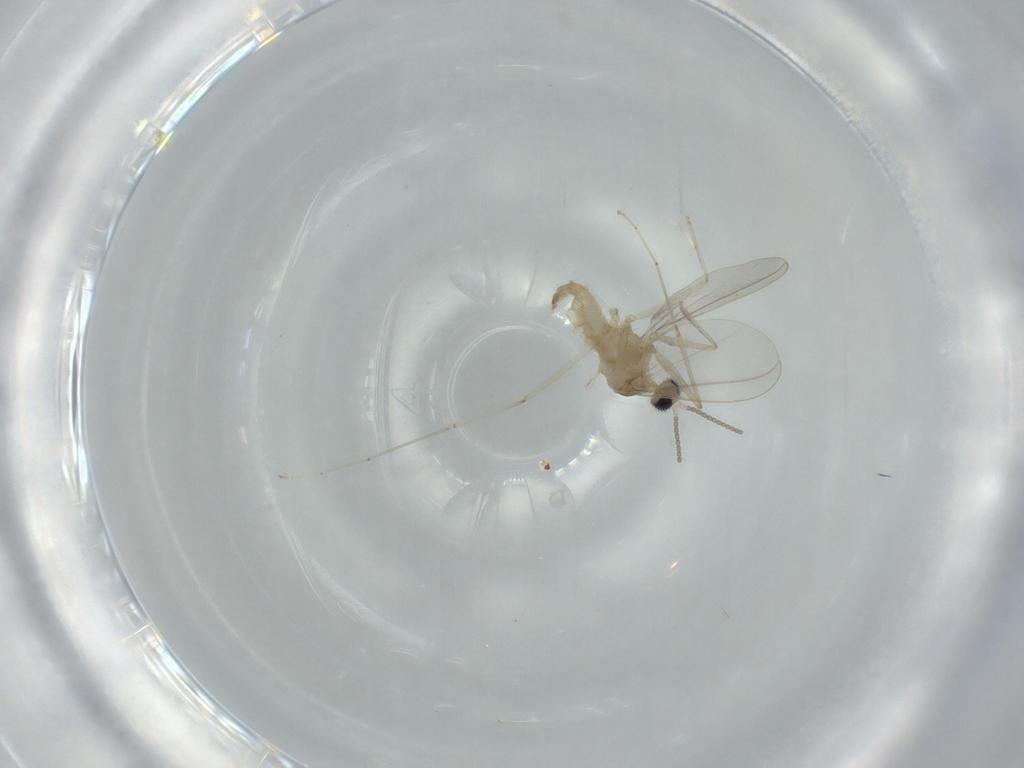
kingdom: Animalia
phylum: Arthropoda
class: Insecta
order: Diptera
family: Cecidomyiidae
